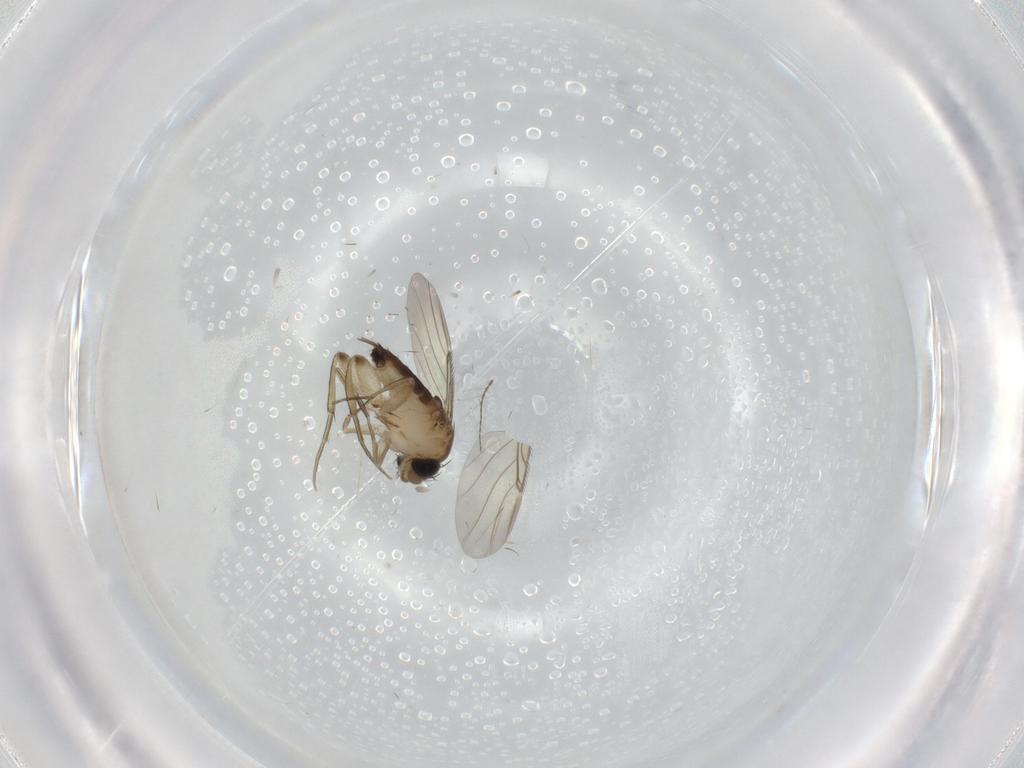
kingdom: Animalia
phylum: Arthropoda
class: Insecta
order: Diptera
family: Phoridae
